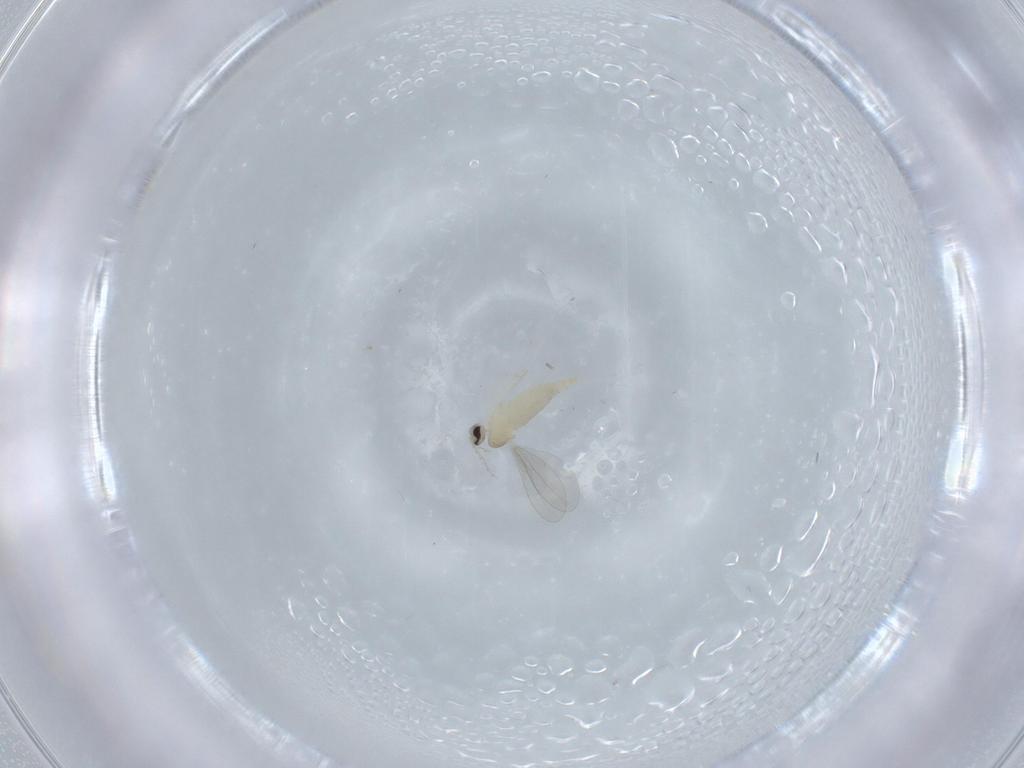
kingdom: Animalia
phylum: Arthropoda
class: Insecta
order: Diptera
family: Cecidomyiidae
